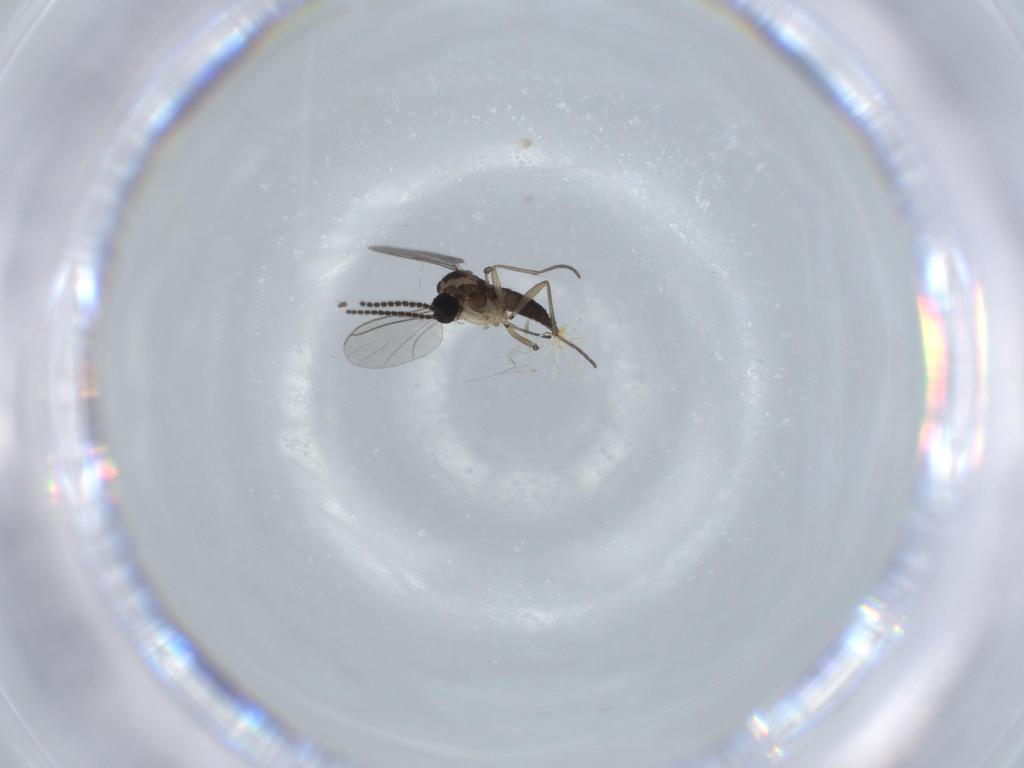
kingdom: Animalia
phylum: Arthropoda
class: Insecta
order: Diptera
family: Sciaridae
